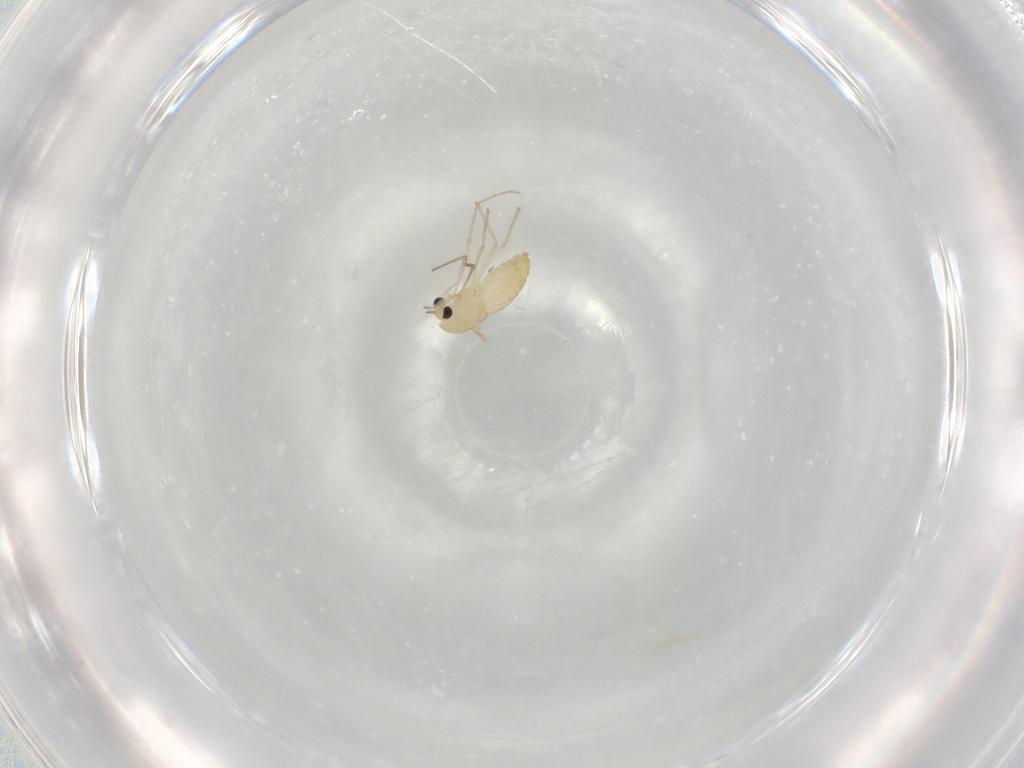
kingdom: Animalia
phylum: Arthropoda
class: Insecta
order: Diptera
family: Chironomidae
